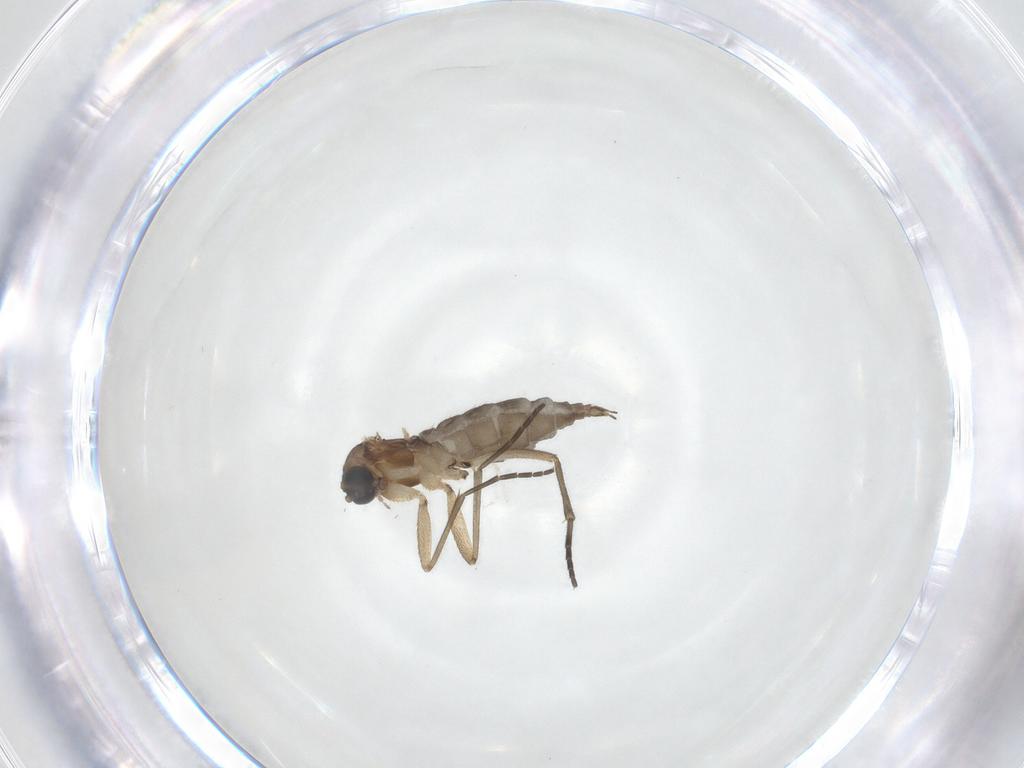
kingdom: Animalia
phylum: Arthropoda
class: Insecta
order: Diptera
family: Sciaridae
